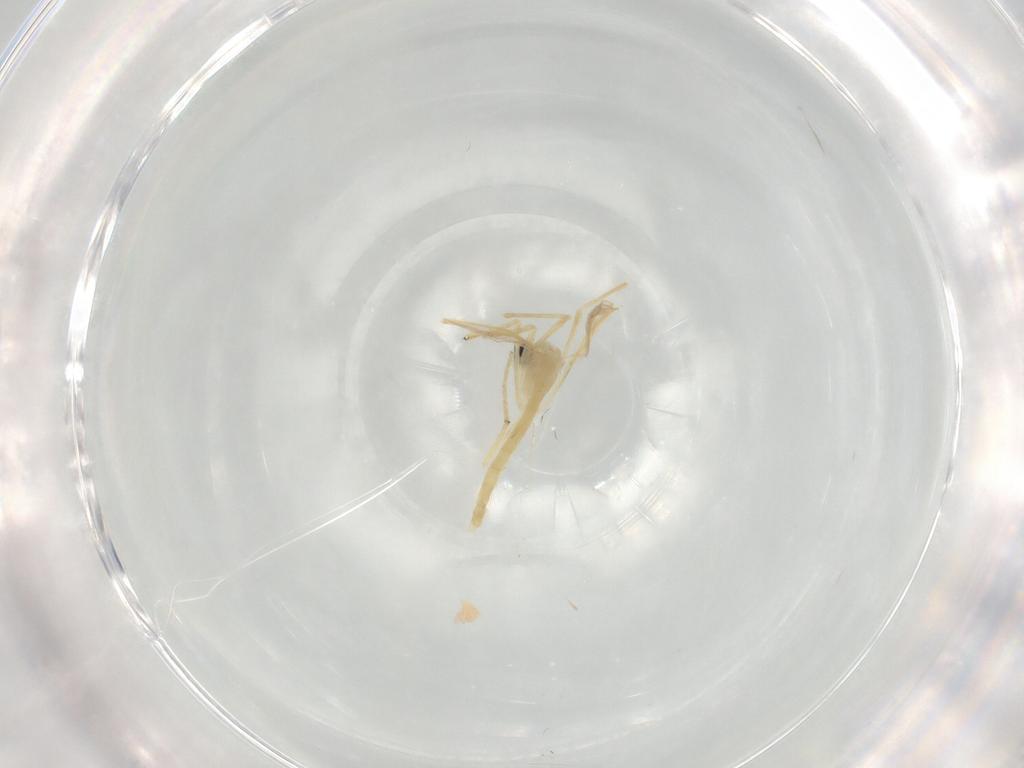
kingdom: Animalia
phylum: Arthropoda
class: Insecta
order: Diptera
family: Chironomidae
